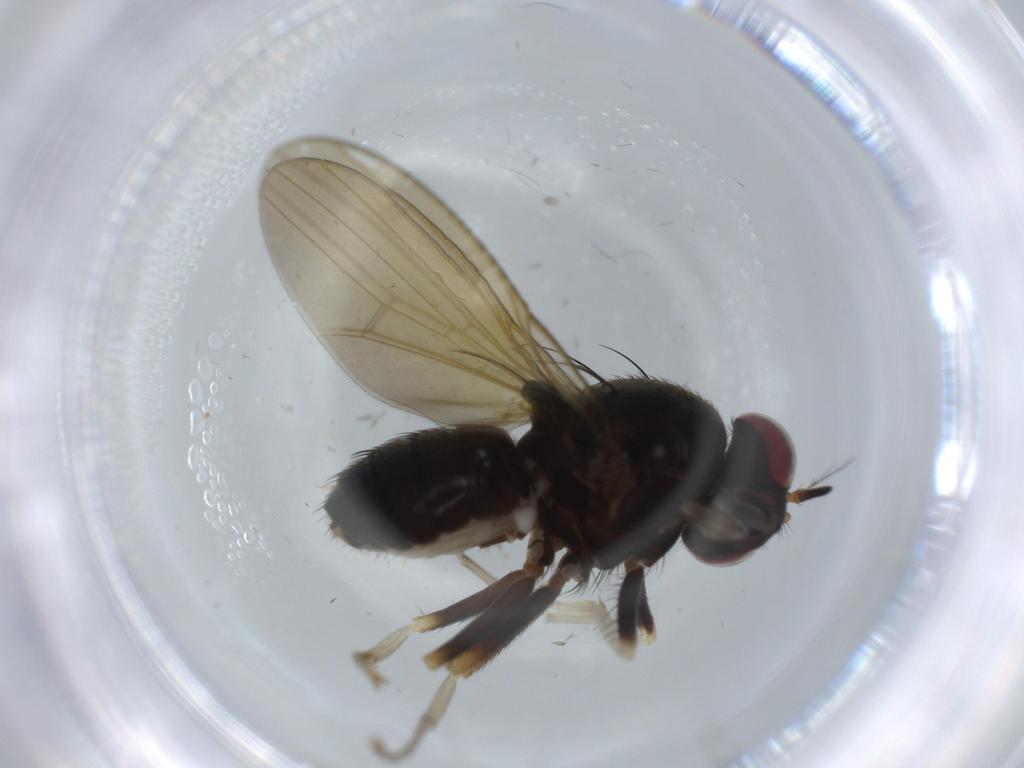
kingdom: Animalia
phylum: Arthropoda
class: Insecta
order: Diptera
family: Lauxaniidae
